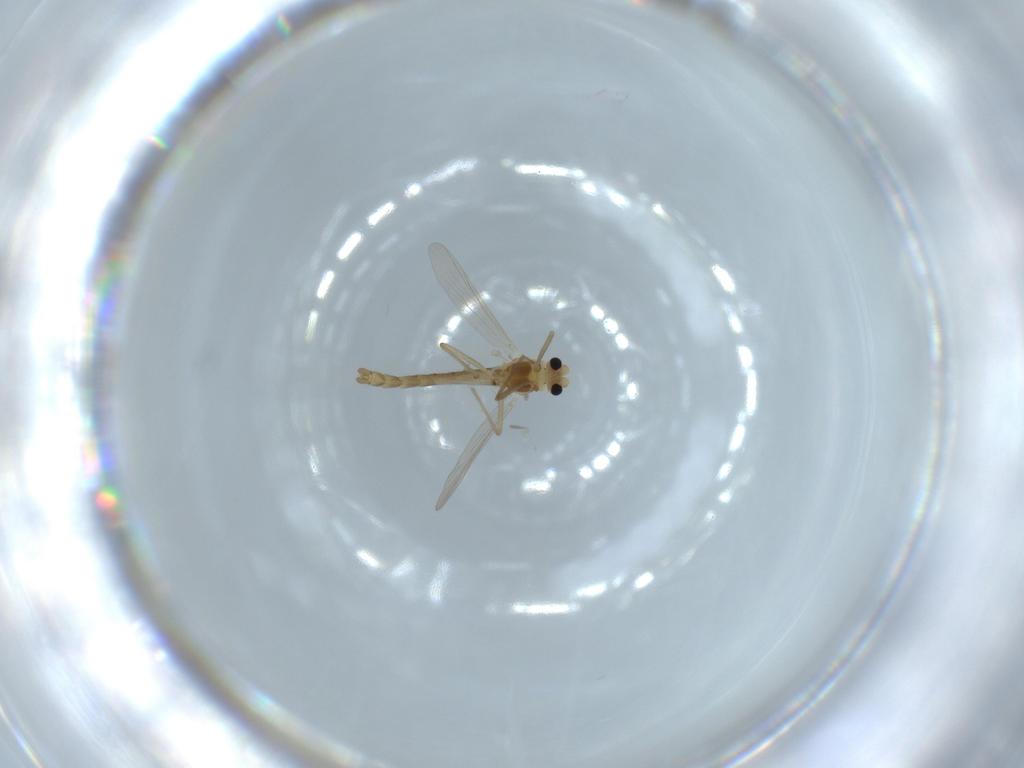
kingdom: Animalia
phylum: Arthropoda
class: Insecta
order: Diptera
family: Chironomidae
